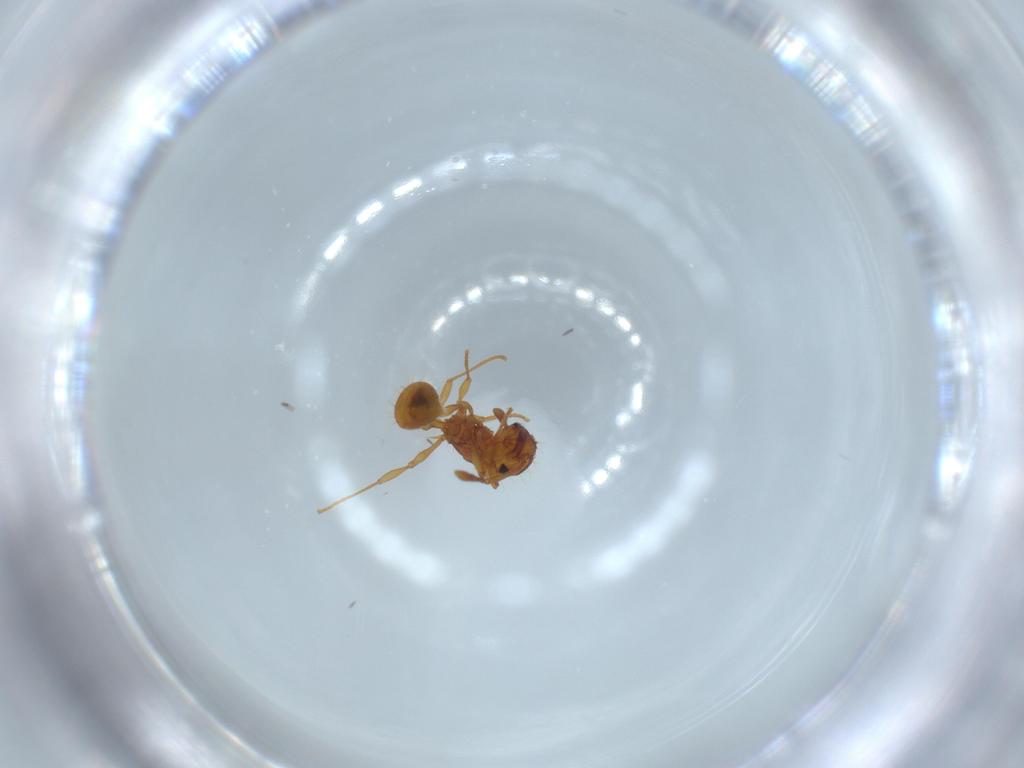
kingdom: Animalia
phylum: Arthropoda
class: Insecta
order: Hymenoptera
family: Formicidae
